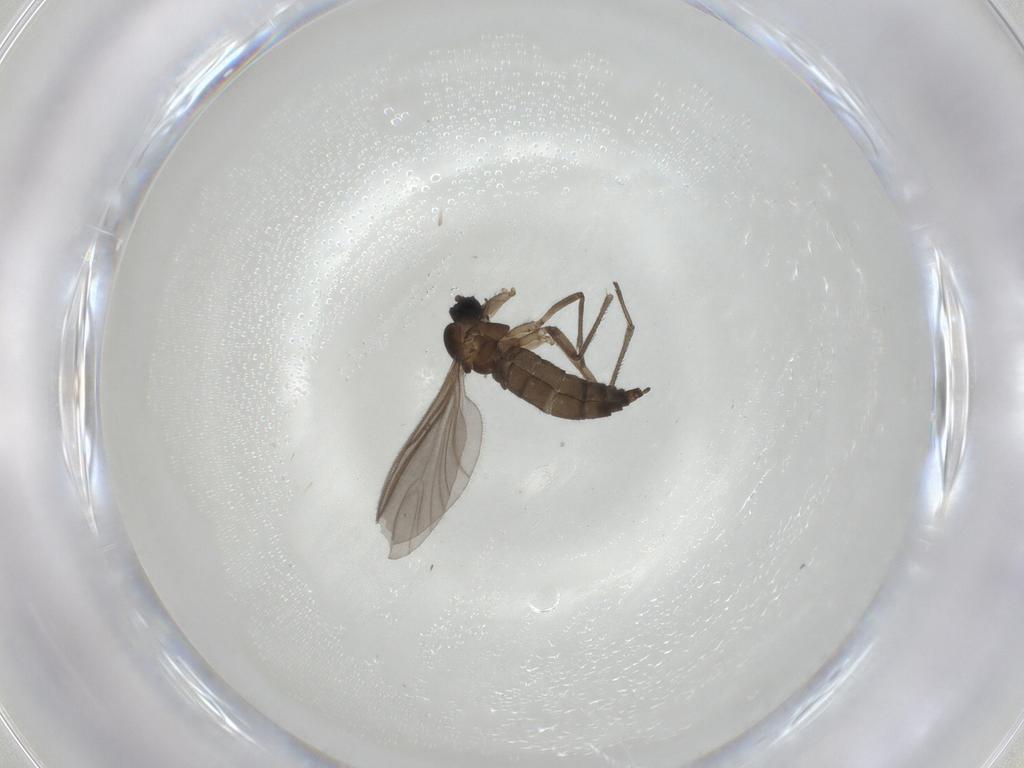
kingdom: Animalia
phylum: Arthropoda
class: Insecta
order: Diptera
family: Sciaridae
